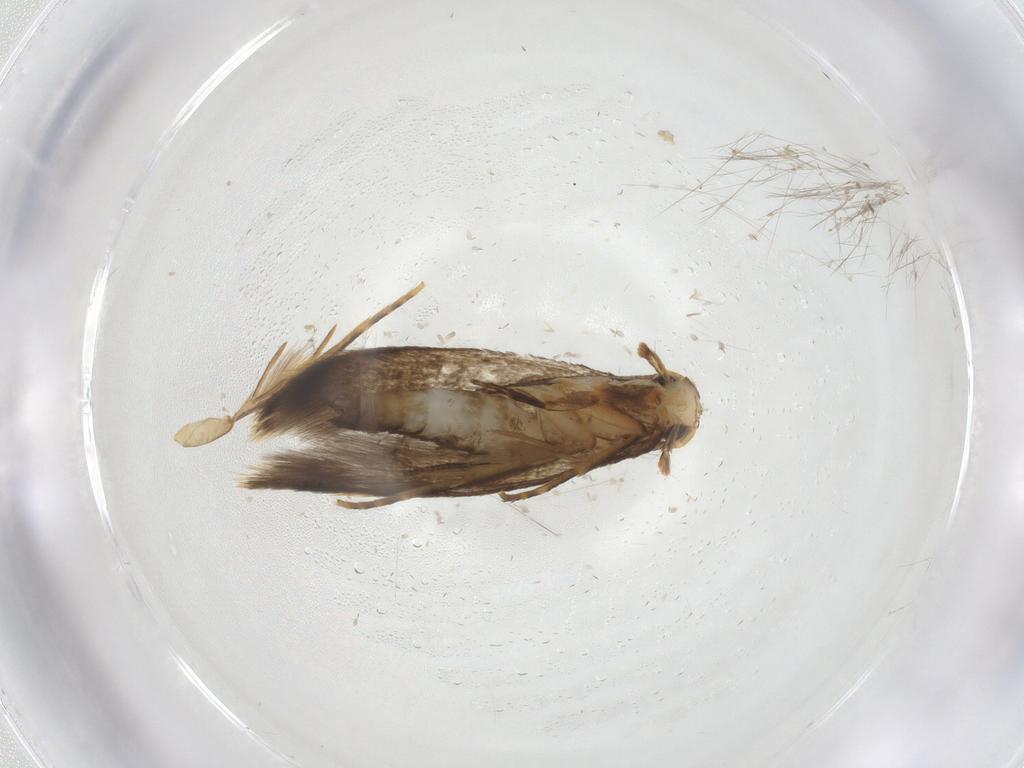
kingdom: Animalia
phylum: Arthropoda
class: Insecta
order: Lepidoptera
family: Tineidae
